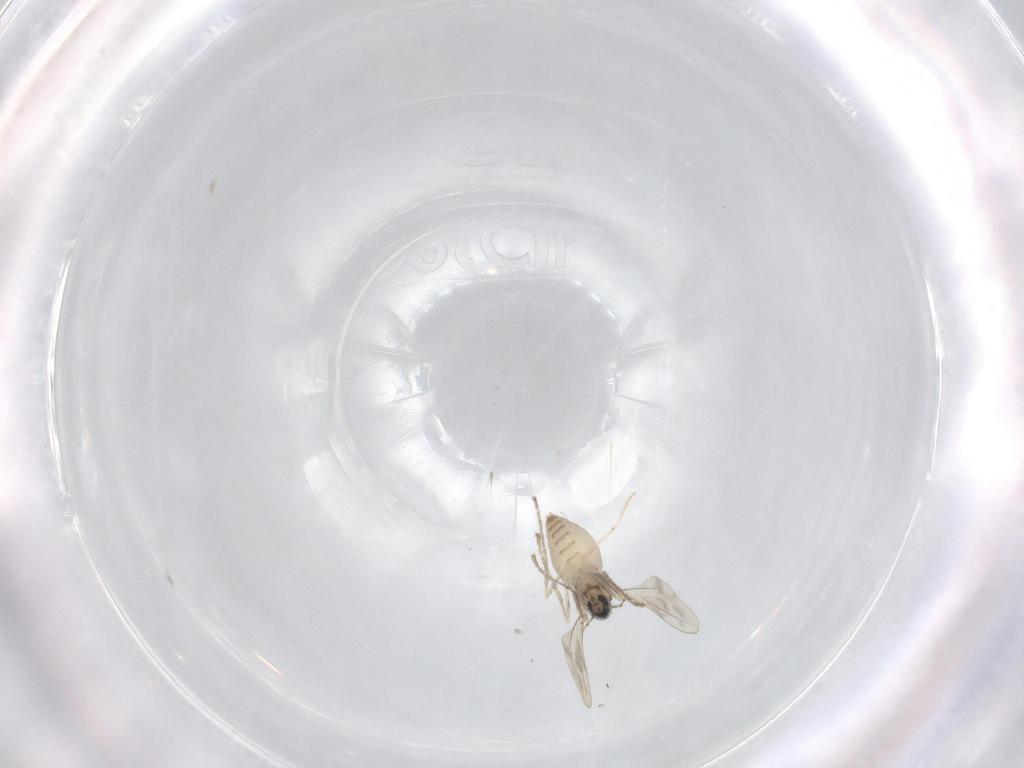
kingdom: Animalia
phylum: Arthropoda
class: Insecta
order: Diptera
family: Cecidomyiidae
